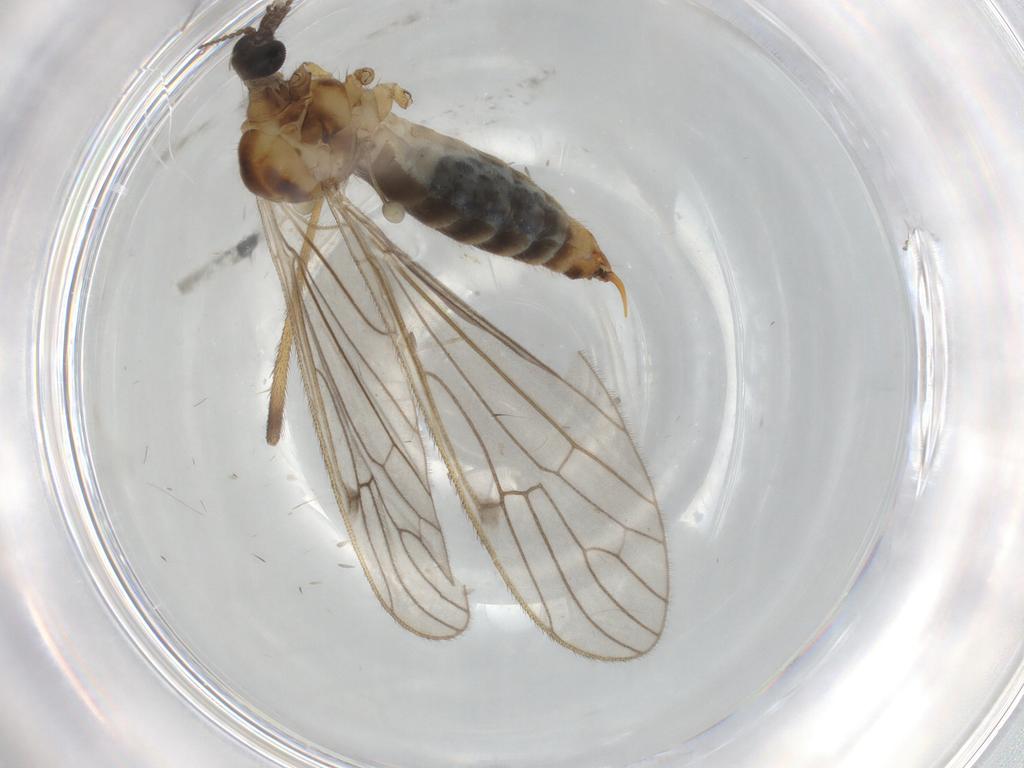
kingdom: Animalia
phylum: Arthropoda
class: Insecta
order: Diptera
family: Limoniidae
